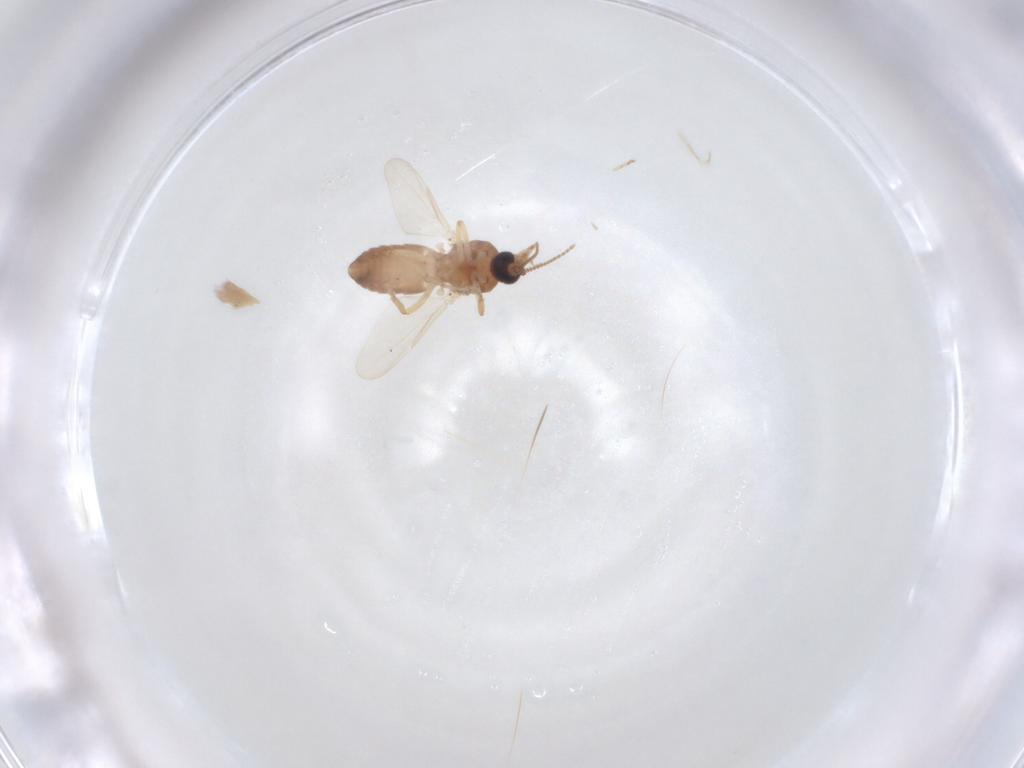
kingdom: Animalia
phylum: Arthropoda
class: Insecta
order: Diptera
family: Chloropidae
